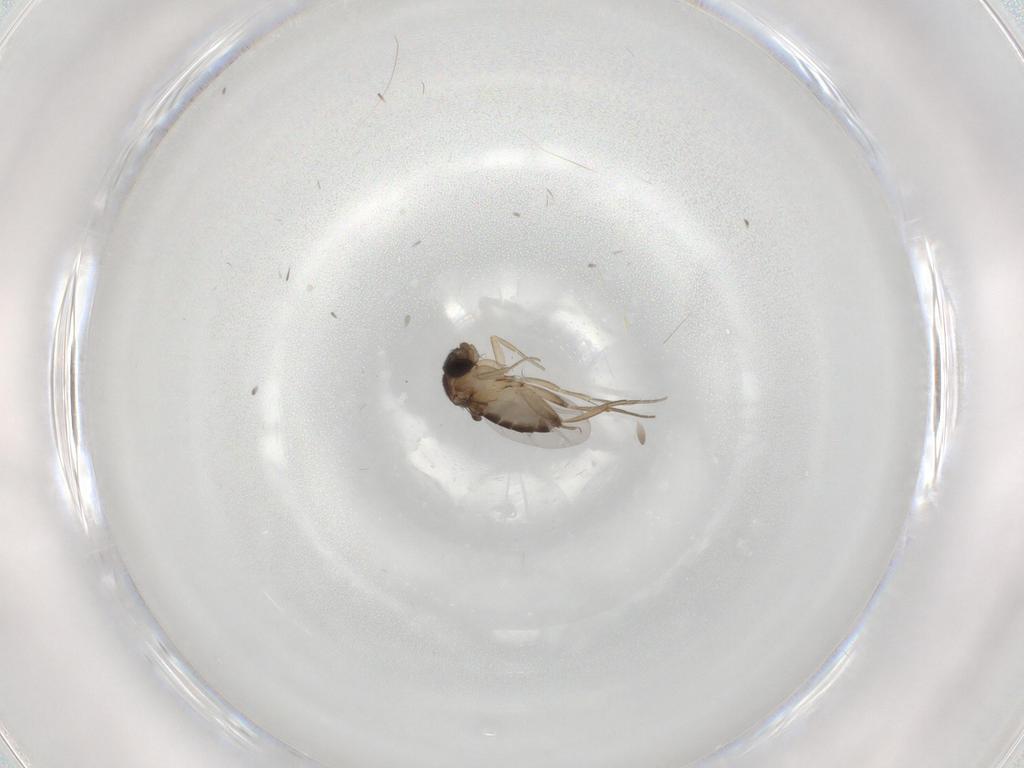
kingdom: Animalia
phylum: Arthropoda
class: Insecta
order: Diptera
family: Phoridae
